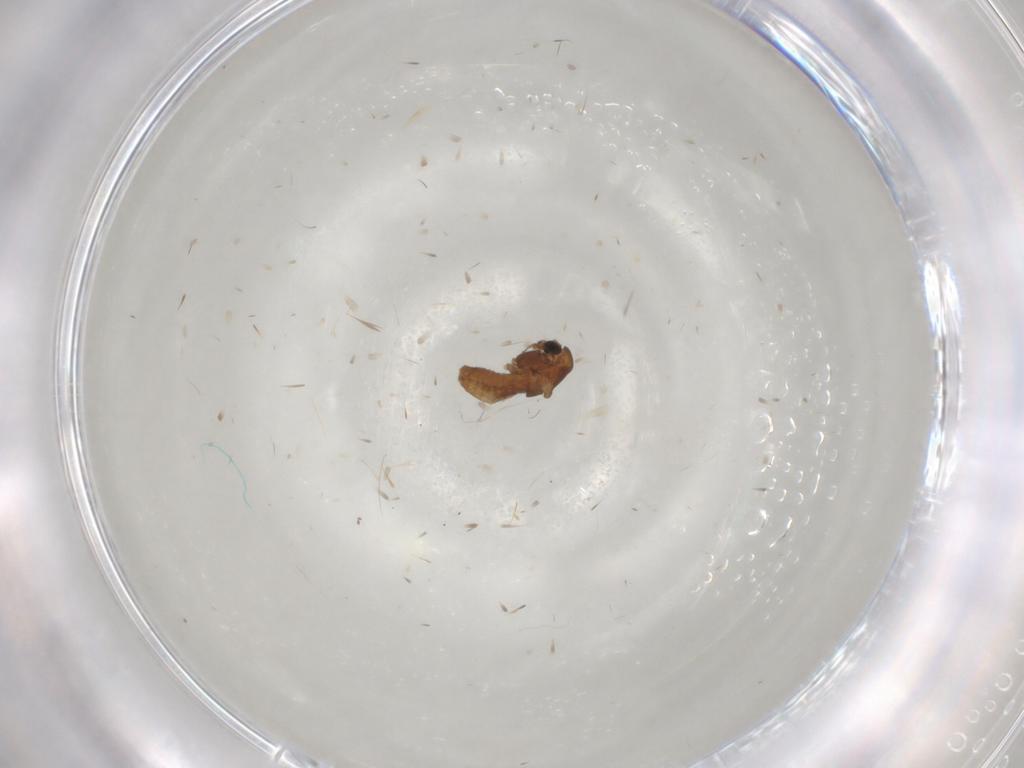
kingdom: Animalia
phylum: Arthropoda
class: Insecta
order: Diptera
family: Chironomidae
